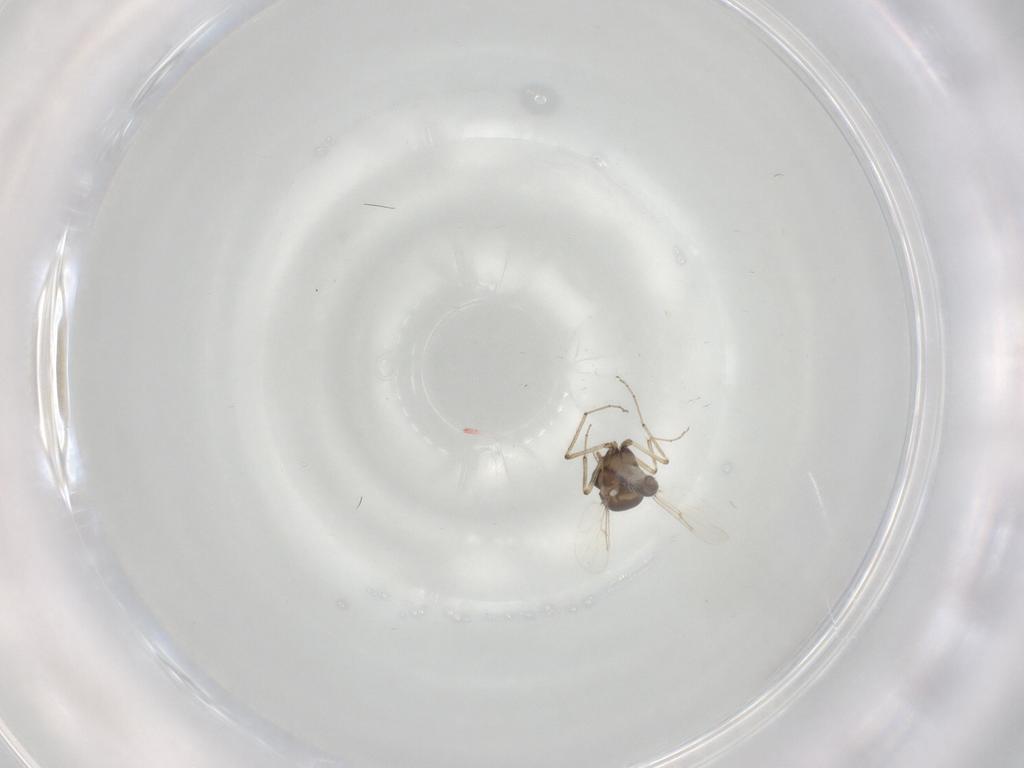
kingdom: Animalia
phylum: Arthropoda
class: Insecta
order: Diptera
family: Ceratopogonidae
